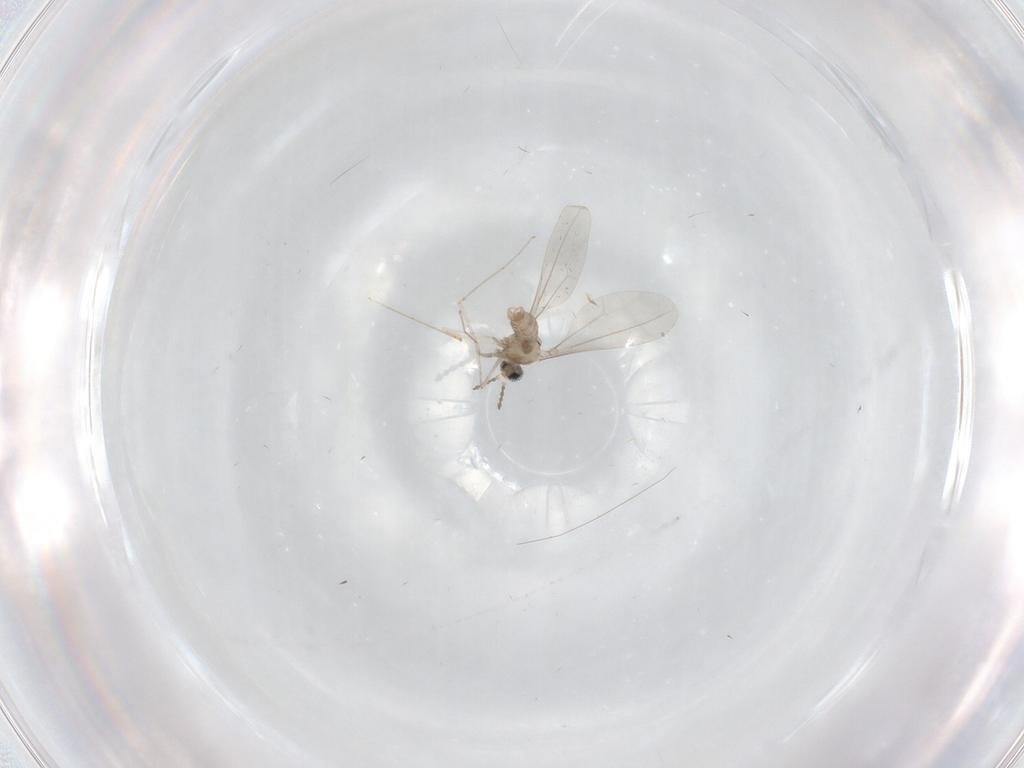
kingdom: Animalia
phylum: Arthropoda
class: Insecta
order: Diptera
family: Cecidomyiidae
